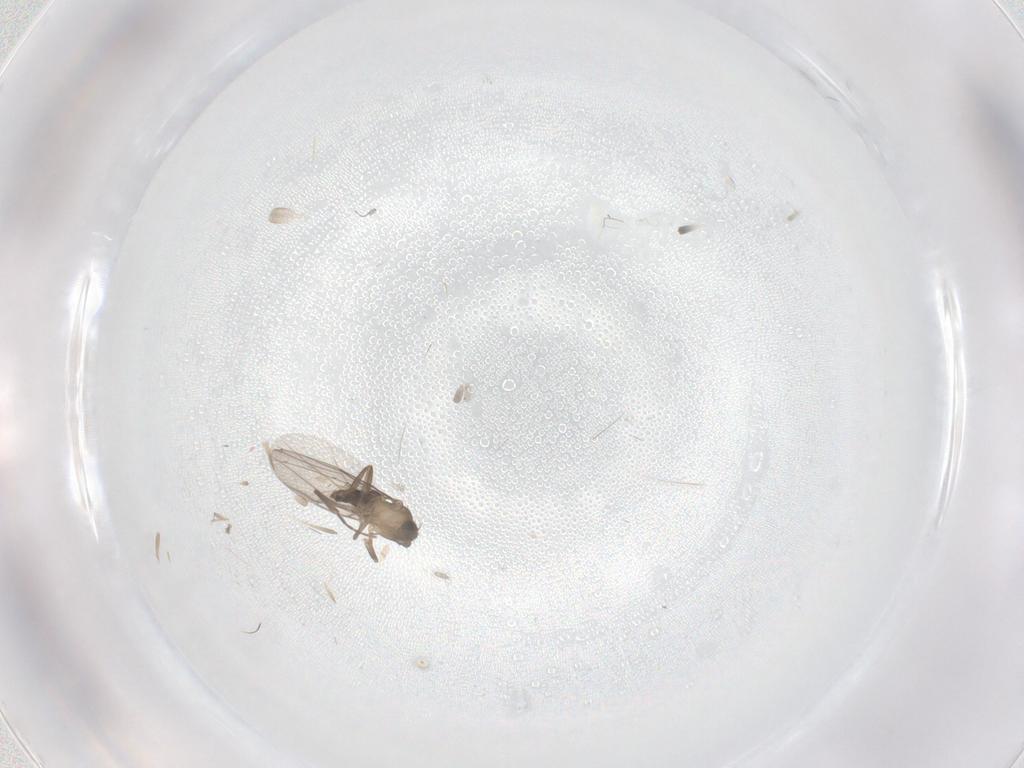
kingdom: Animalia
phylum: Arthropoda
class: Insecta
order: Diptera
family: Phoridae
